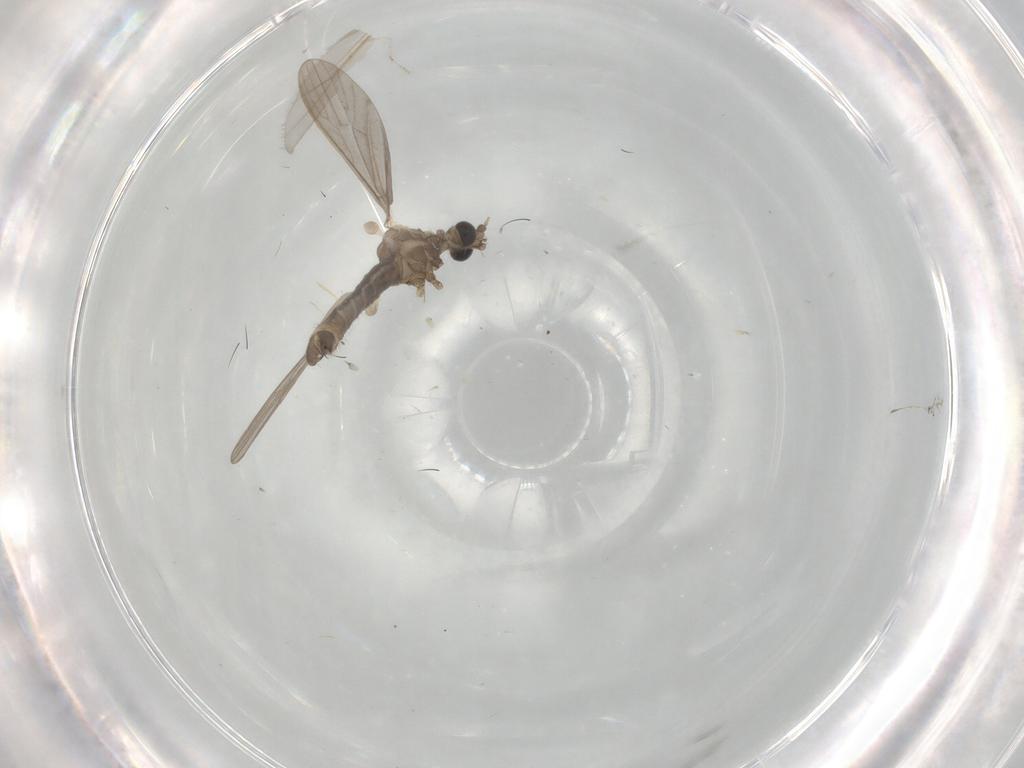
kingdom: Animalia
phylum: Arthropoda
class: Insecta
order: Diptera
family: Limoniidae
